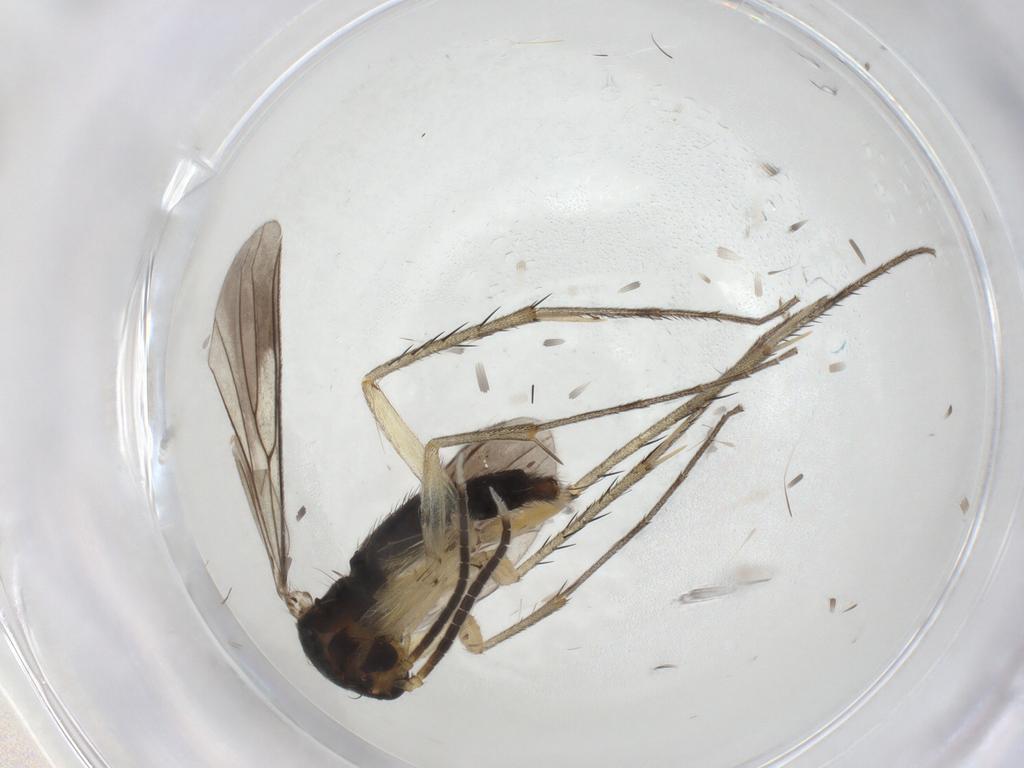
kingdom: Animalia
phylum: Arthropoda
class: Insecta
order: Diptera
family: Mycetophilidae
